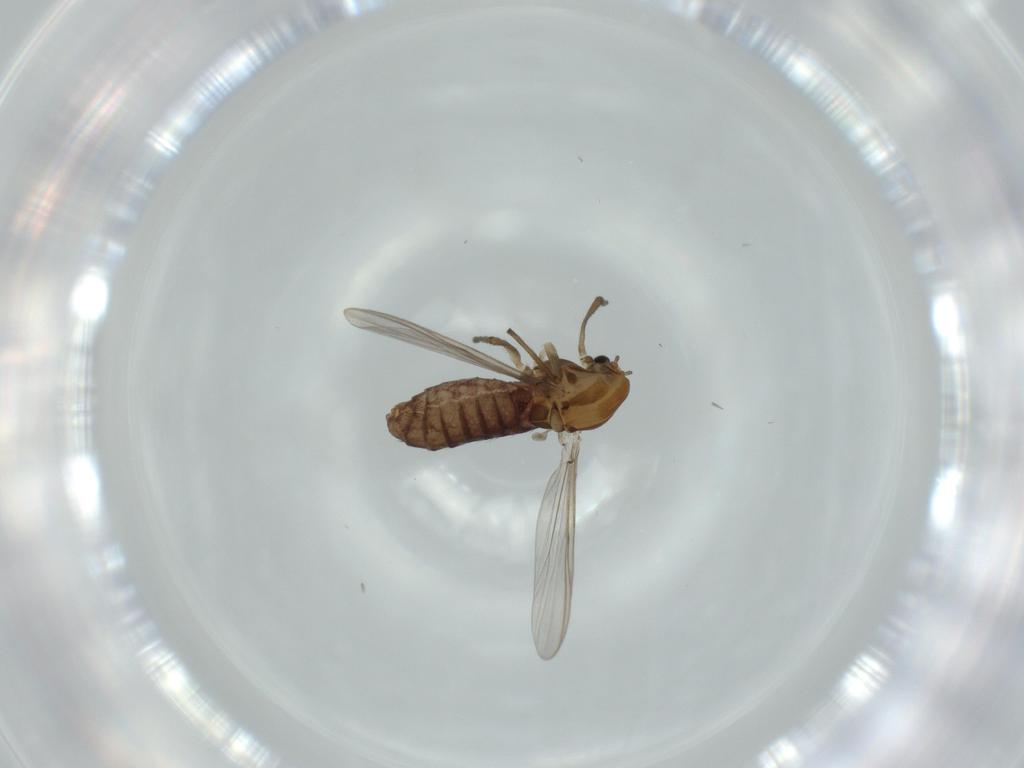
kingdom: Animalia
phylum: Arthropoda
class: Insecta
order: Diptera
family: Chironomidae
